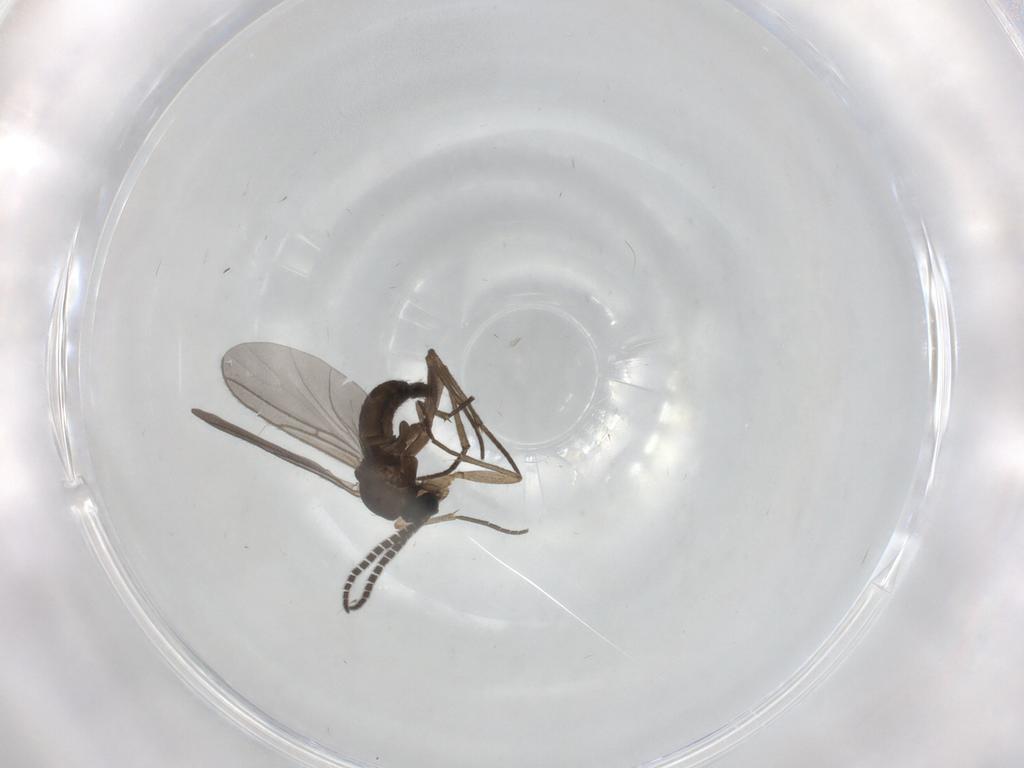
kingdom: Animalia
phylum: Arthropoda
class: Insecta
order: Diptera
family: Sciaridae
